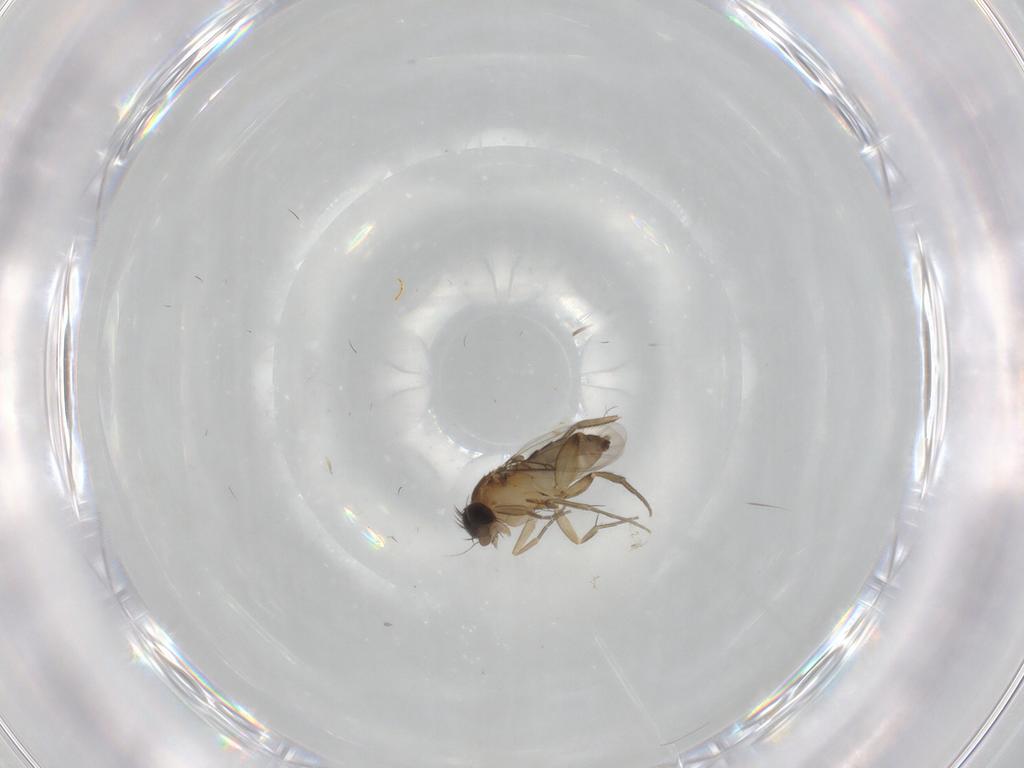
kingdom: Animalia
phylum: Arthropoda
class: Insecta
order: Diptera
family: Phoridae
